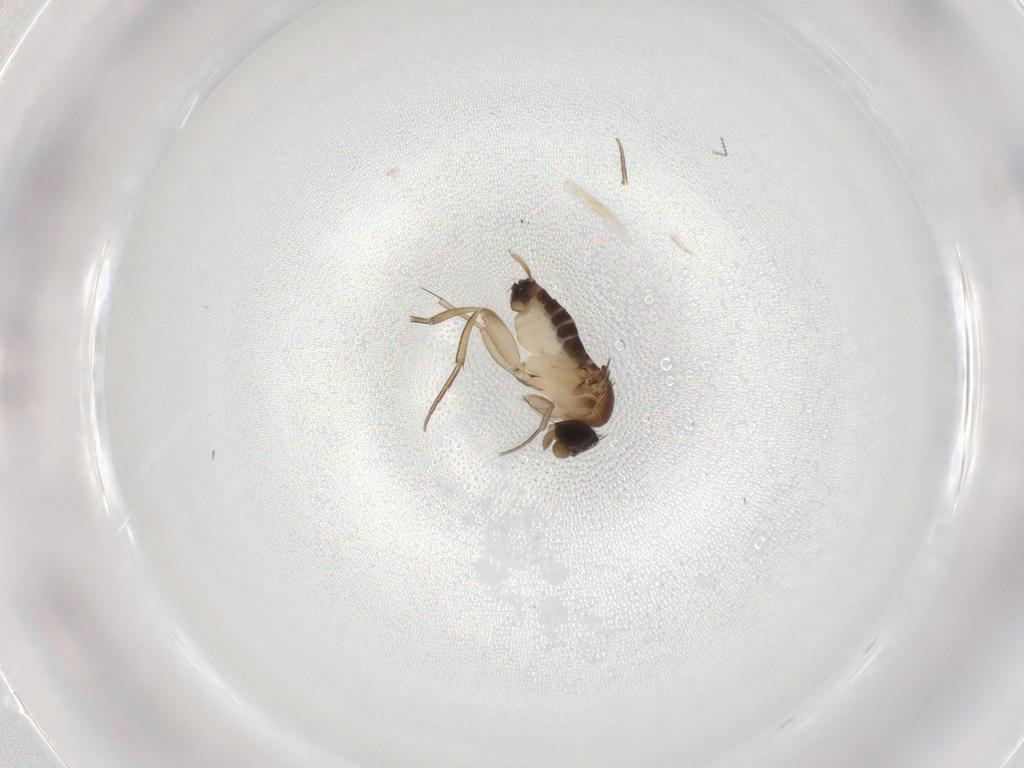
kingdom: Animalia
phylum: Arthropoda
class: Insecta
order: Diptera
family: Phoridae
